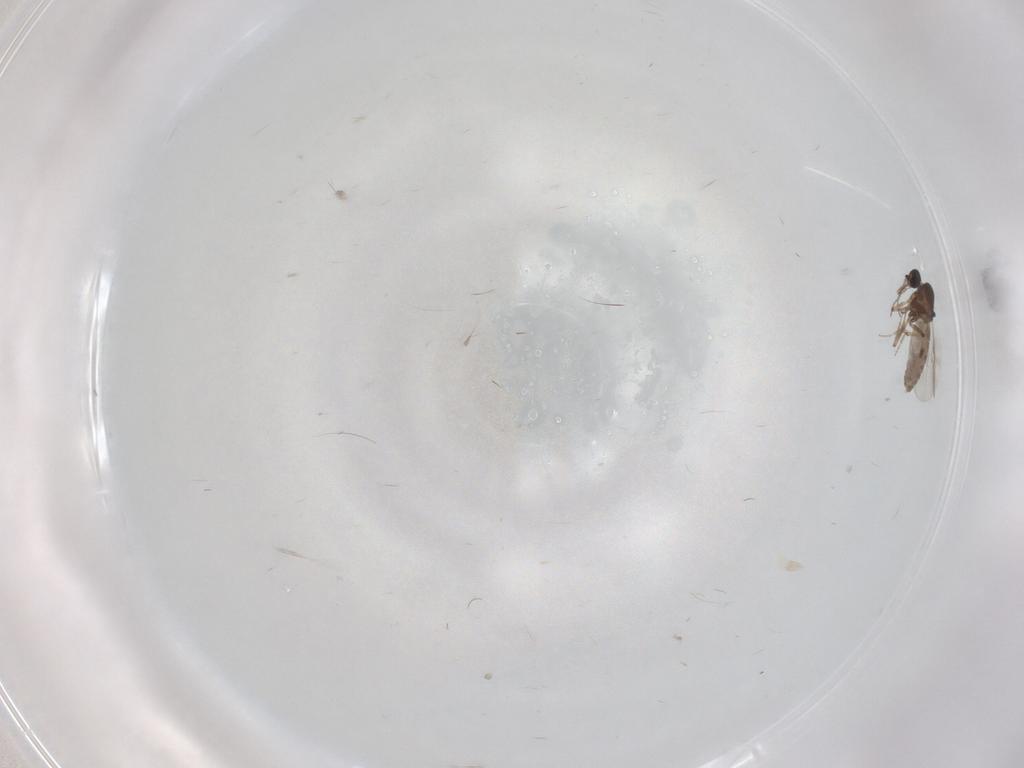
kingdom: Animalia
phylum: Arthropoda
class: Insecta
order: Diptera
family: Psychodidae
